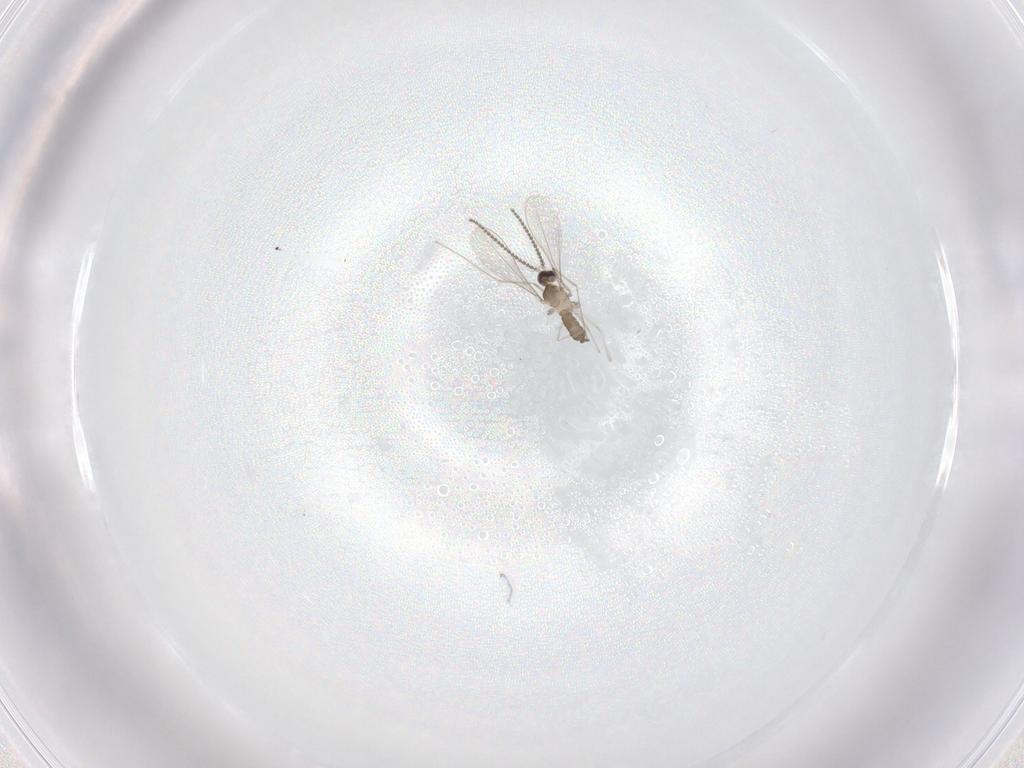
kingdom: Animalia
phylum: Arthropoda
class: Insecta
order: Diptera
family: Cecidomyiidae
